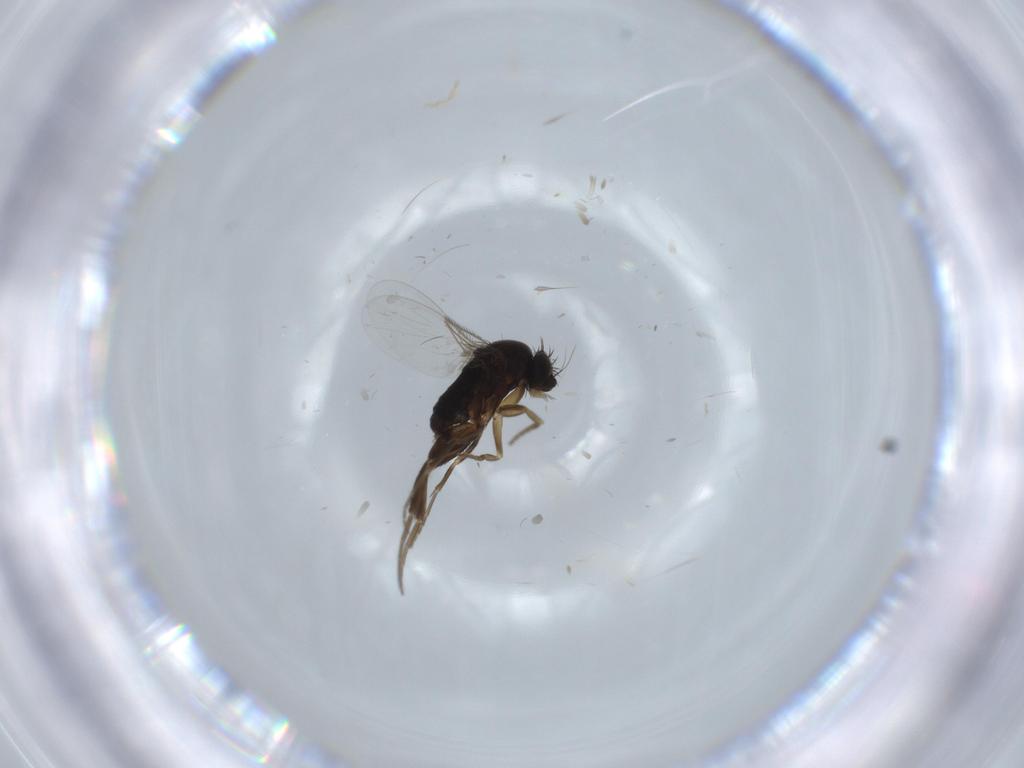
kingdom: Animalia
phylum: Arthropoda
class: Insecta
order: Diptera
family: Phoridae
